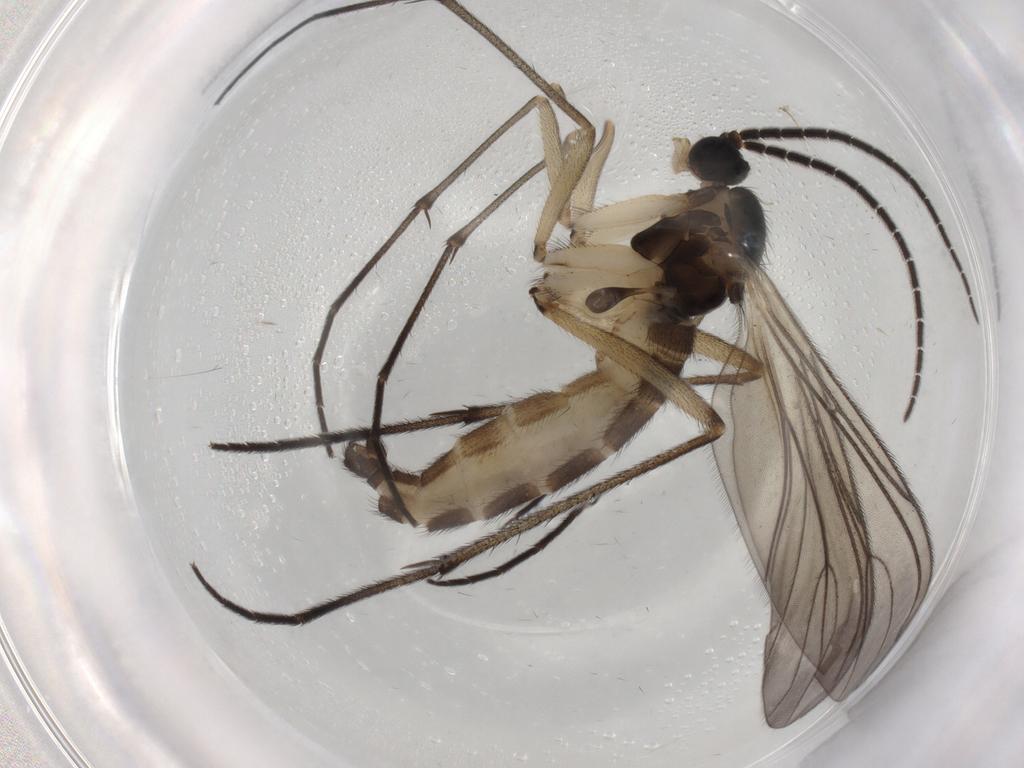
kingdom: Animalia
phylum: Arthropoda
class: Insecta
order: Diptera
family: Sciaridae
